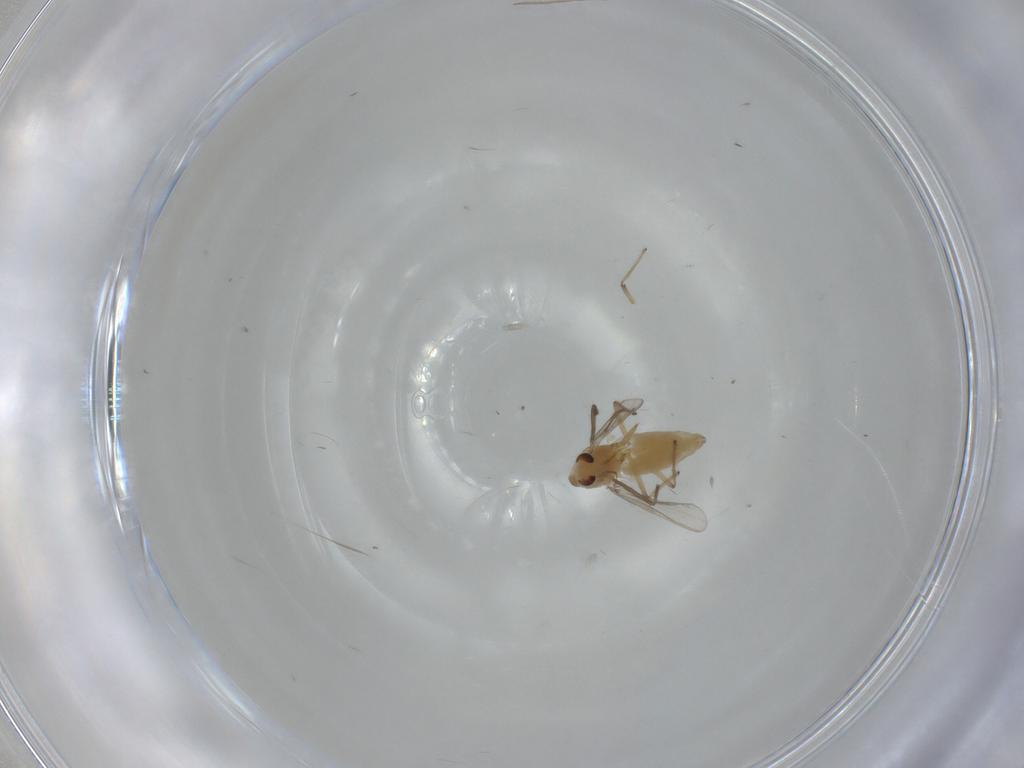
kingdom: Animalia
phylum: Arthropoda
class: Insecta
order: Diptera
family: Chironomidae
